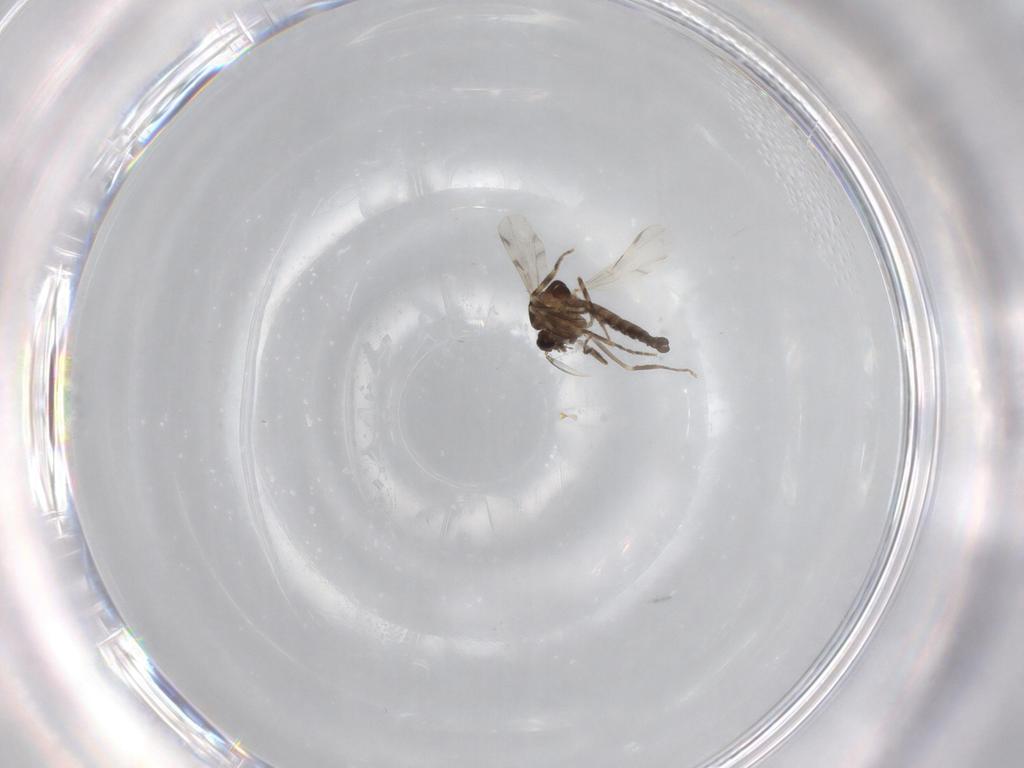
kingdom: Animalia
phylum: Arthropoda
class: Insecta
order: Diptera
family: Ceratopogonidae
